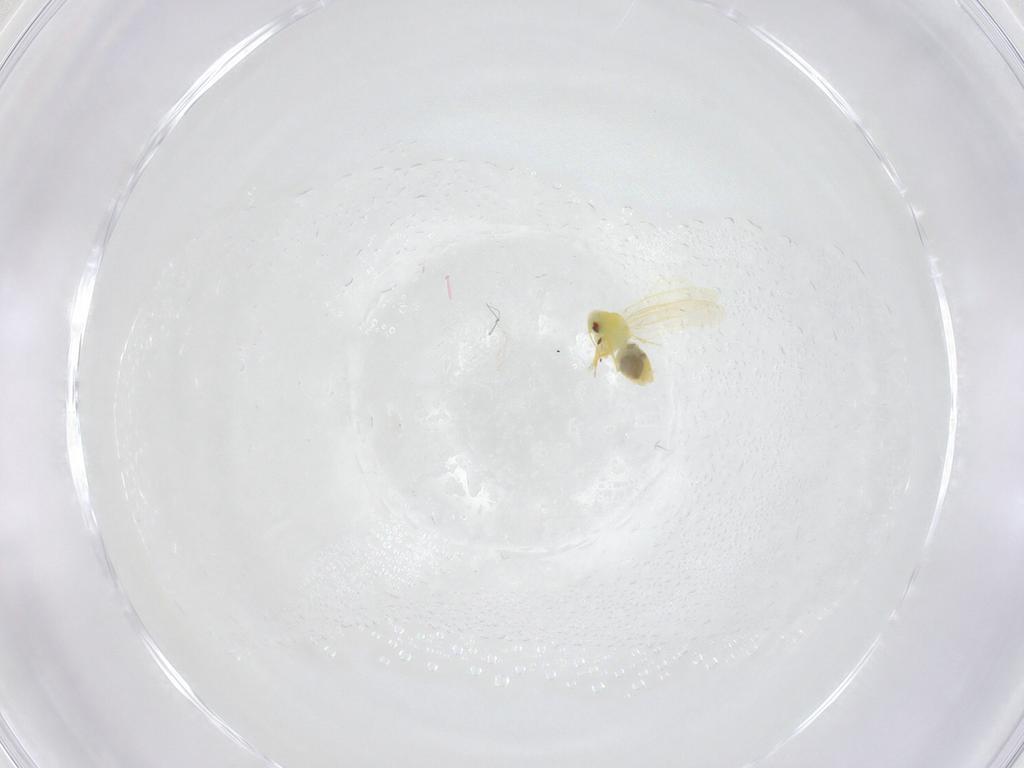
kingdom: Animalia
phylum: Arthropoda
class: Insecta
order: Hemiptera
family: Aleyrodidae
